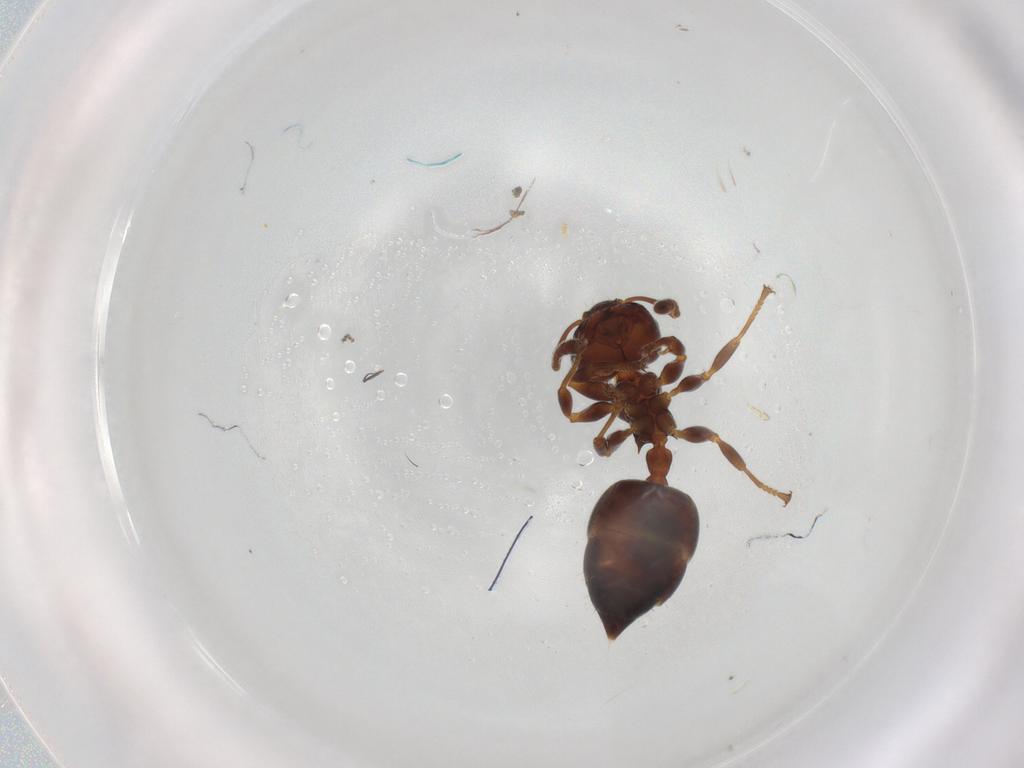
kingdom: Animalia
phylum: Arthropoda
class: Insecta
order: Hymenoptera
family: Formicidae
